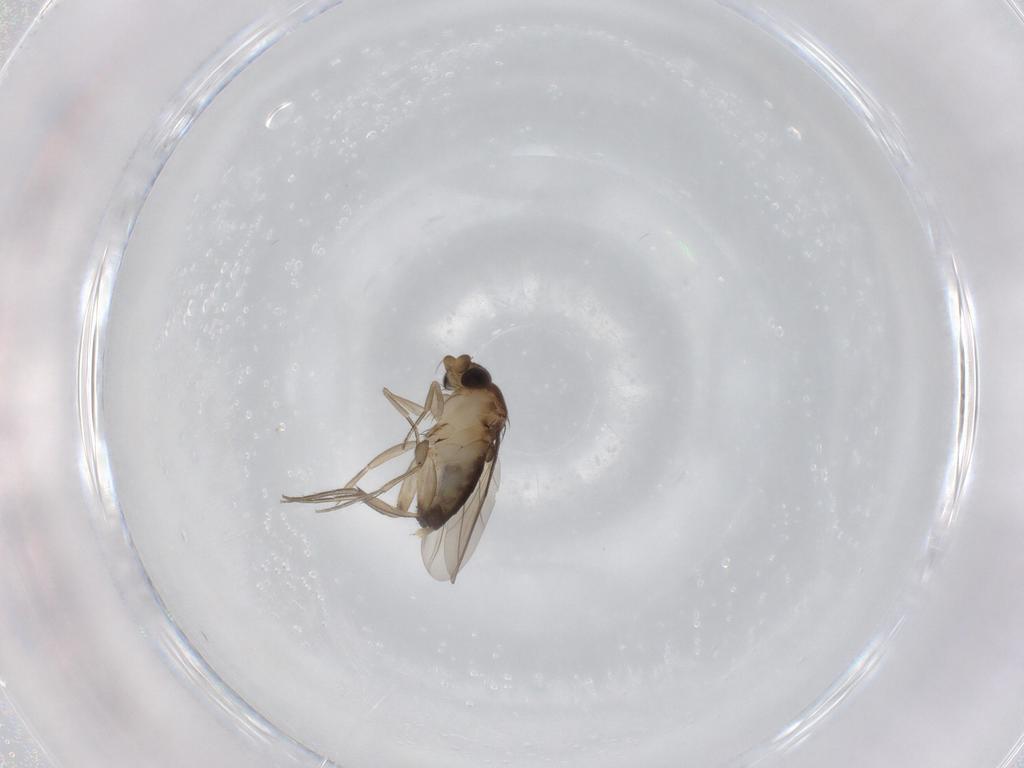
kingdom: Animalia
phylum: Arthropoda
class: Insecta
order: Diptera
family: Phoridae
